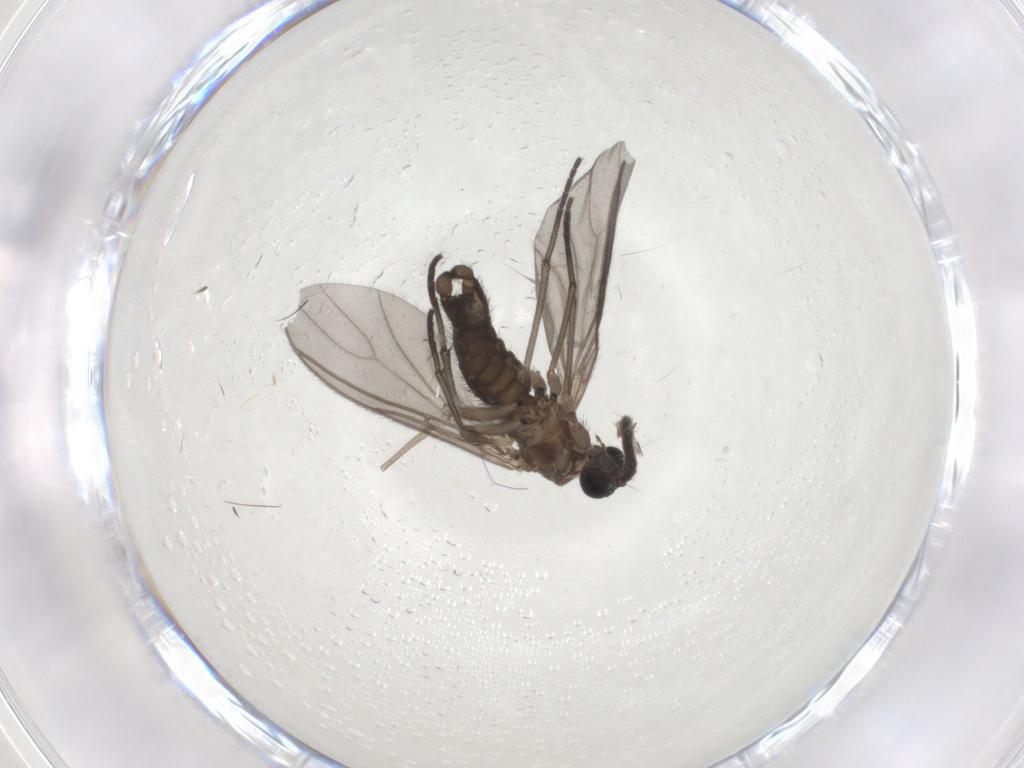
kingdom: Animalia
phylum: Arthropoda
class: Insecta
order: Diptera
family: Sciaridae
